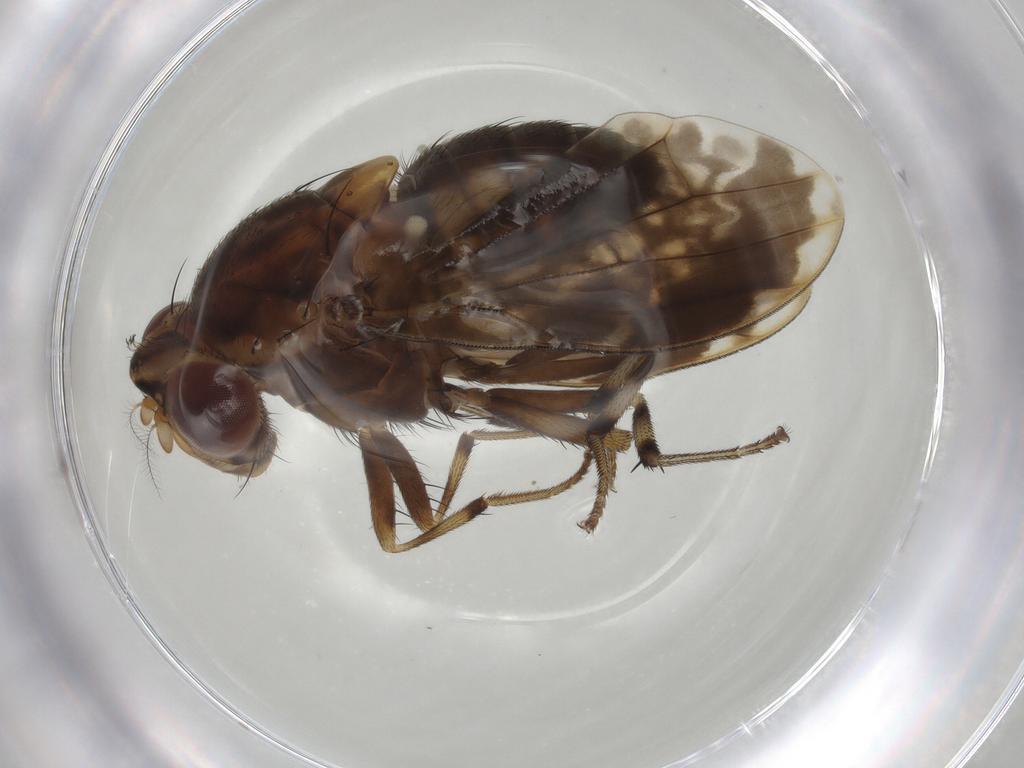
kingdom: Animalia
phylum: Arthropoda
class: Insecta
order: Diptera
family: Lauxaniidae
